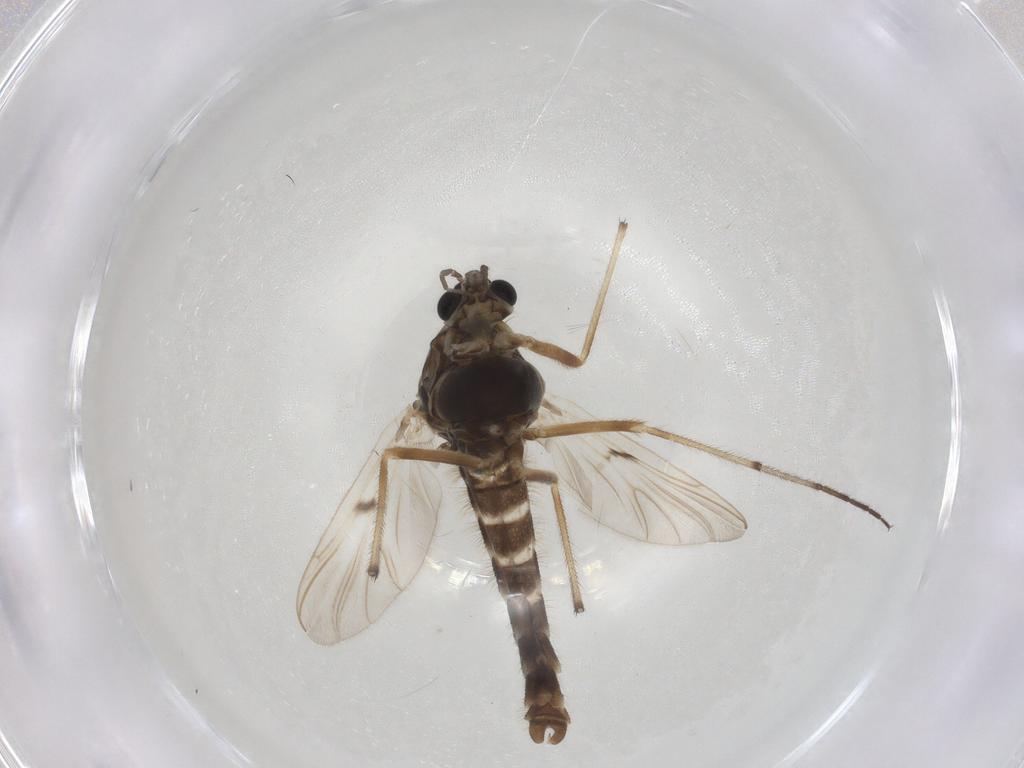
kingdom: Animalia
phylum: Arthropoda
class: Insecta
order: Diptera
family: Chironomidae
